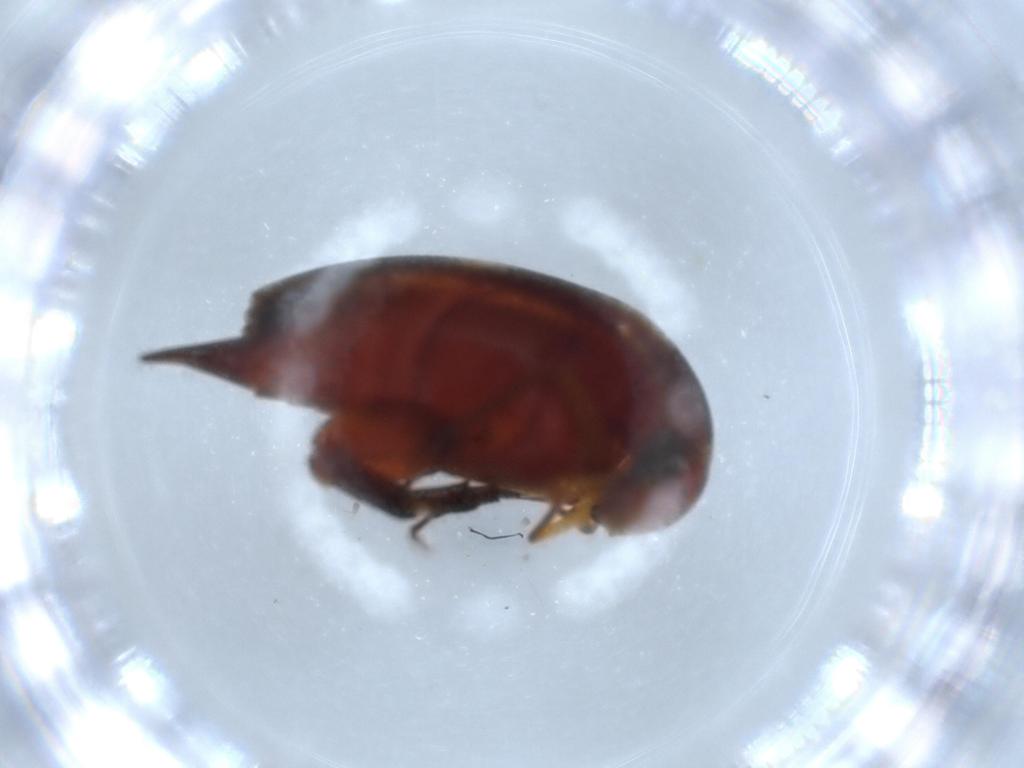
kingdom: Animalia
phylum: Arthropoda
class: Insecta
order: Coleoptera
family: Mordellidae
